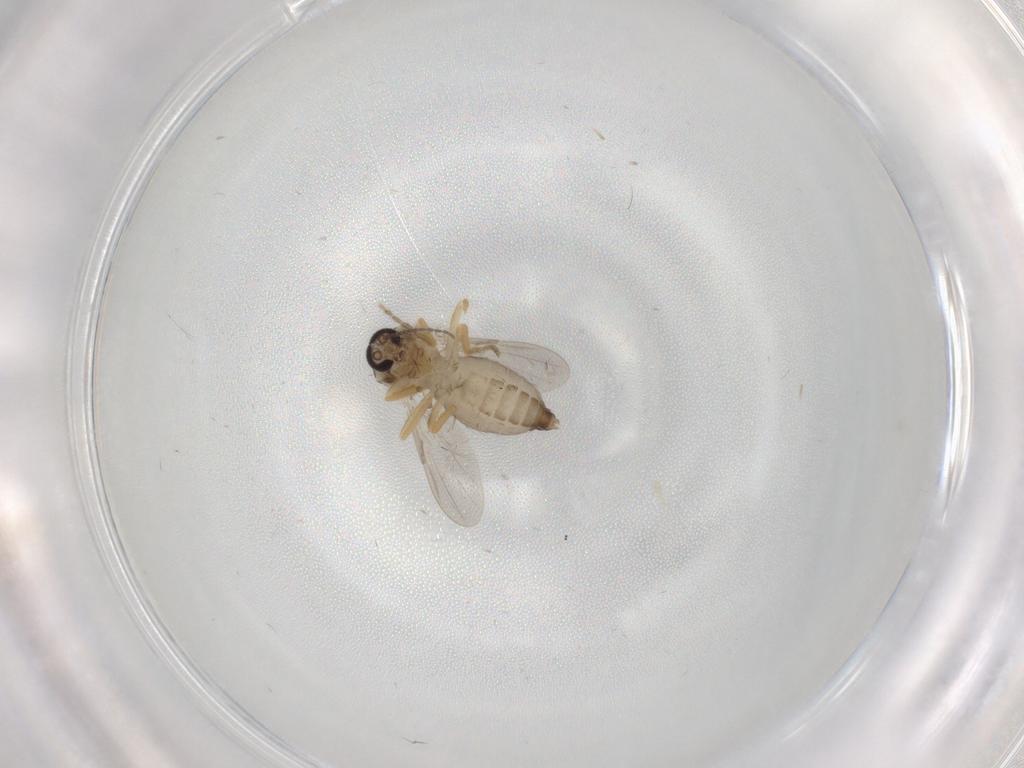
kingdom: Animalia
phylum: Arthropoda
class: Insecta
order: Diptera
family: Ceratopogonidae
